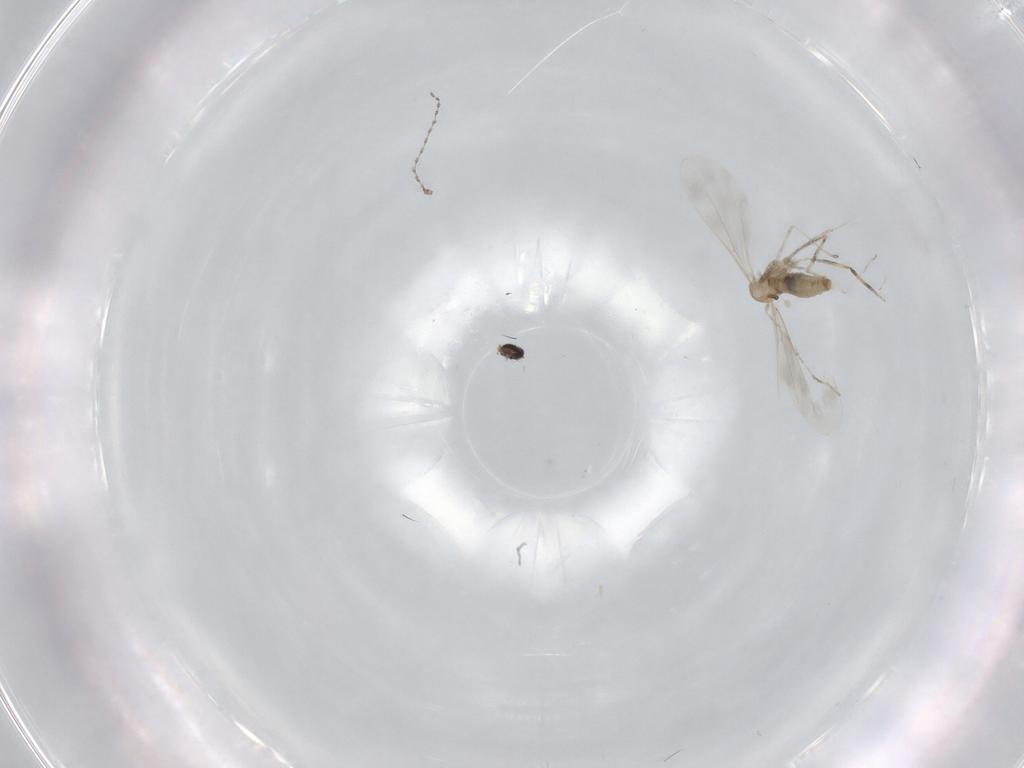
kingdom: Animalia
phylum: Arthropoda
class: Insecta
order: Diptera
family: Cecidomyiidae
